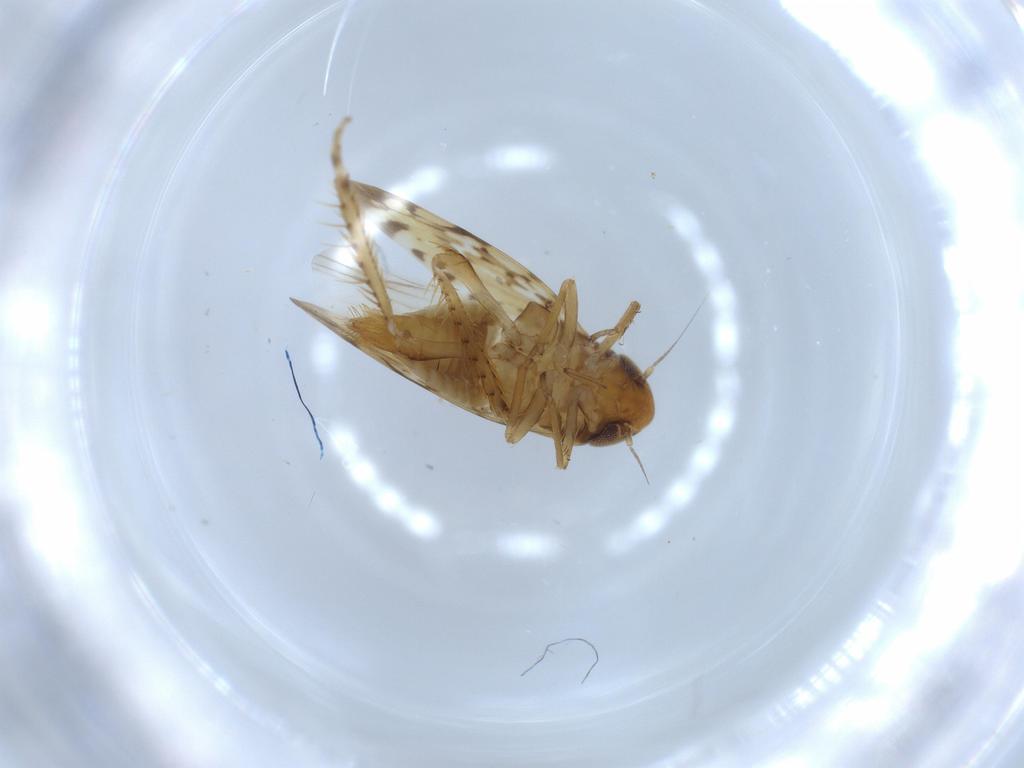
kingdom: Animalia
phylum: Arthropoda
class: Insecta
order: Hemiptera
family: Cicadellidae
